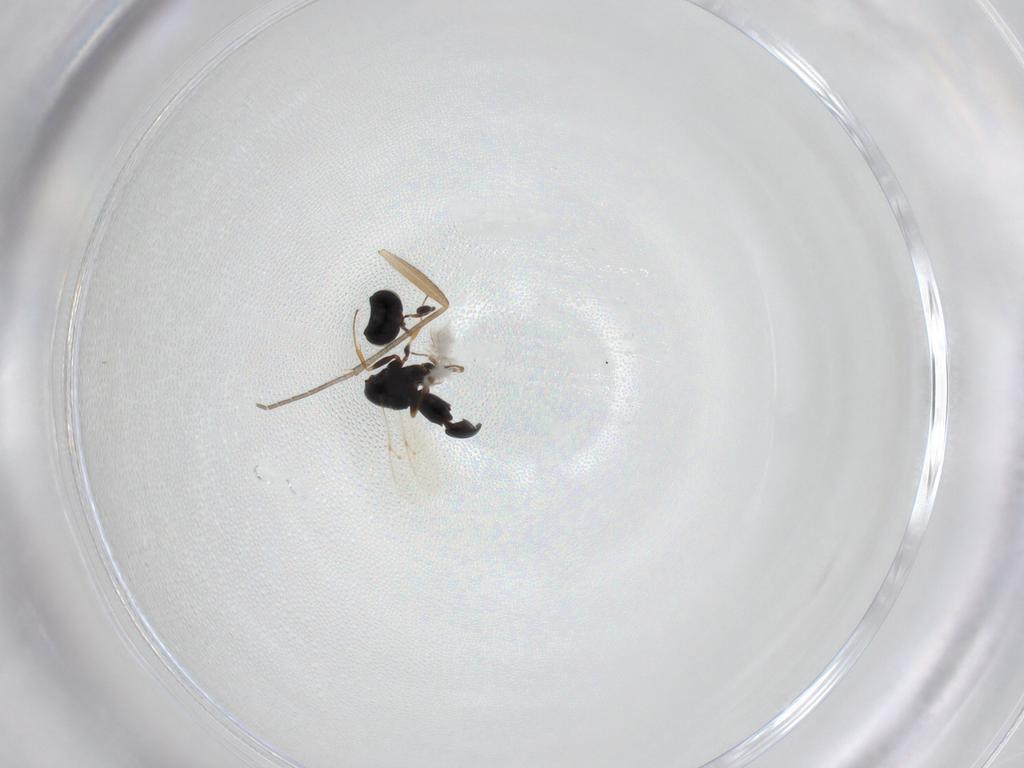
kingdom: Animalia
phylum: Arthropoda
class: Insecta
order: Hymenoptera
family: Scelionidae
